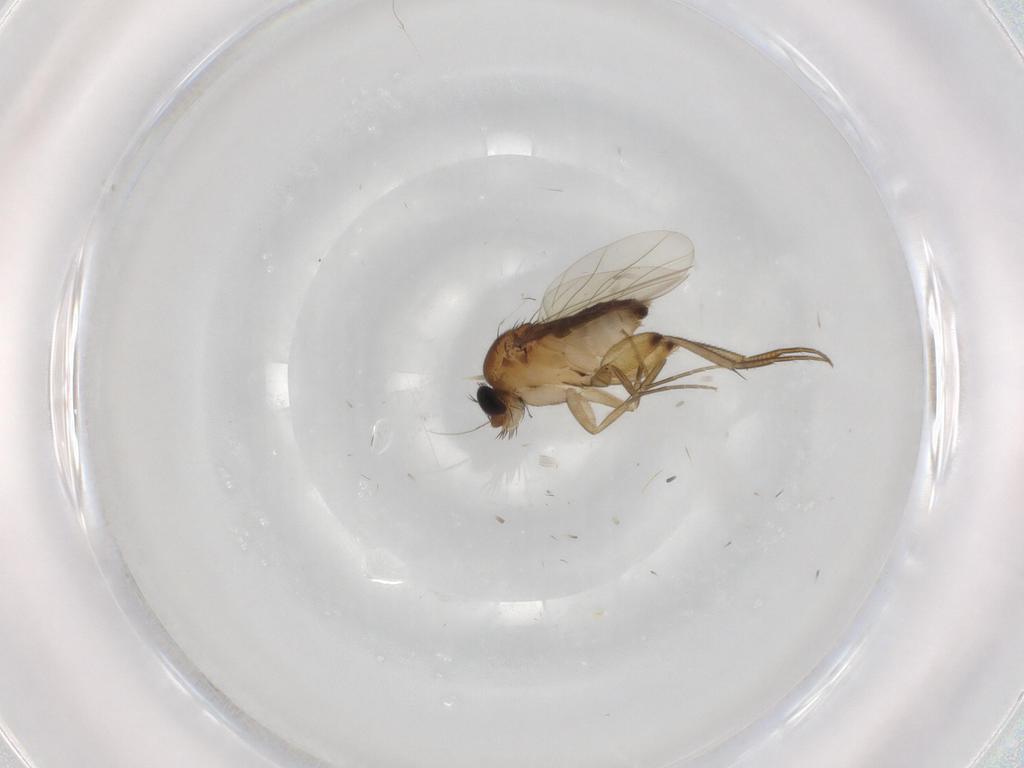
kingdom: Animalia
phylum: Arthropoda
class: Insecta
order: Diptera
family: Phoridae
